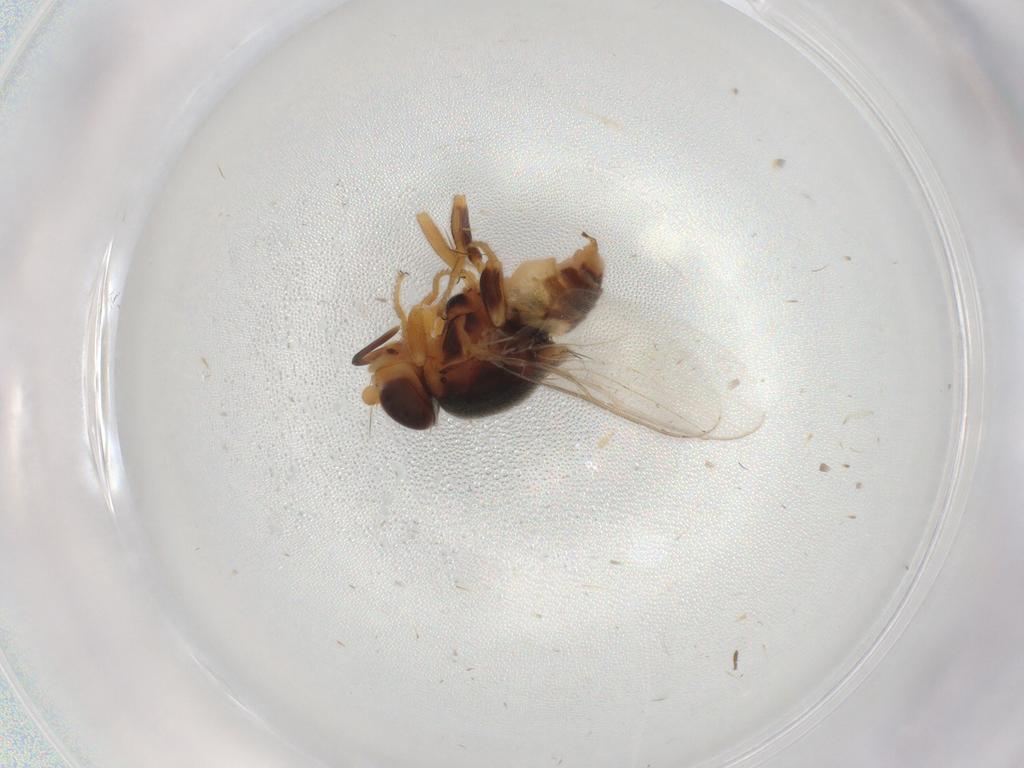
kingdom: Animalia
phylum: Arthropoda
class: Insecta
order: Diptera
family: Chloropidae
